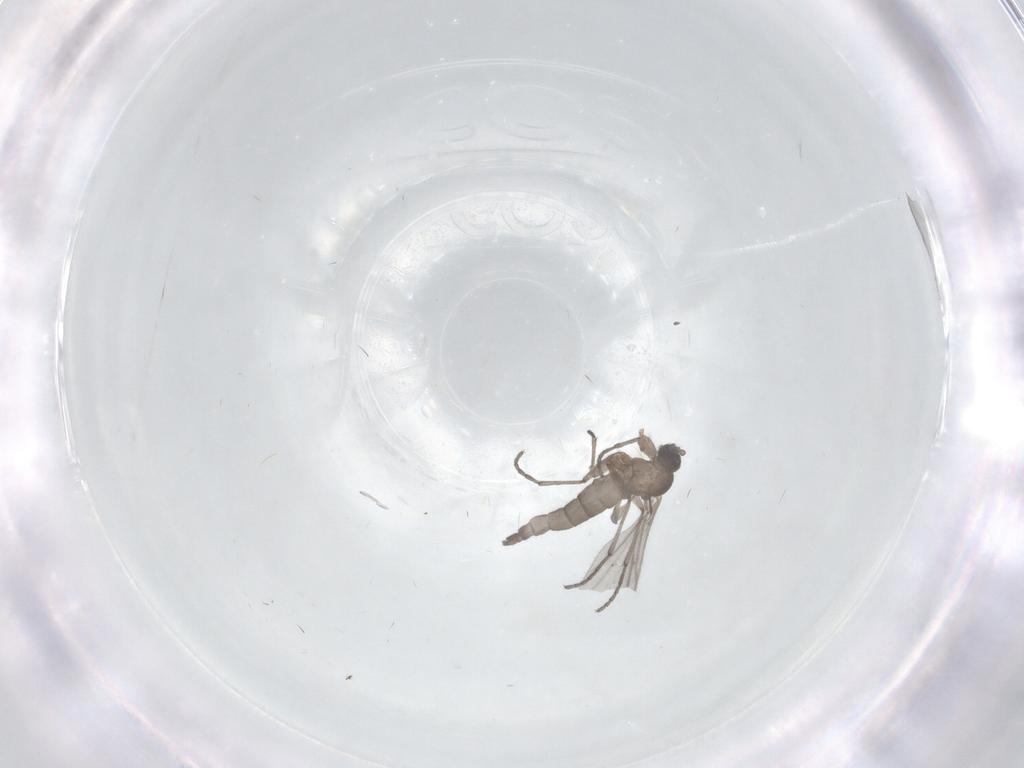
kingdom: Animalia
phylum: Arthropoda
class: Insecta
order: Diptera
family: Sciaridae
